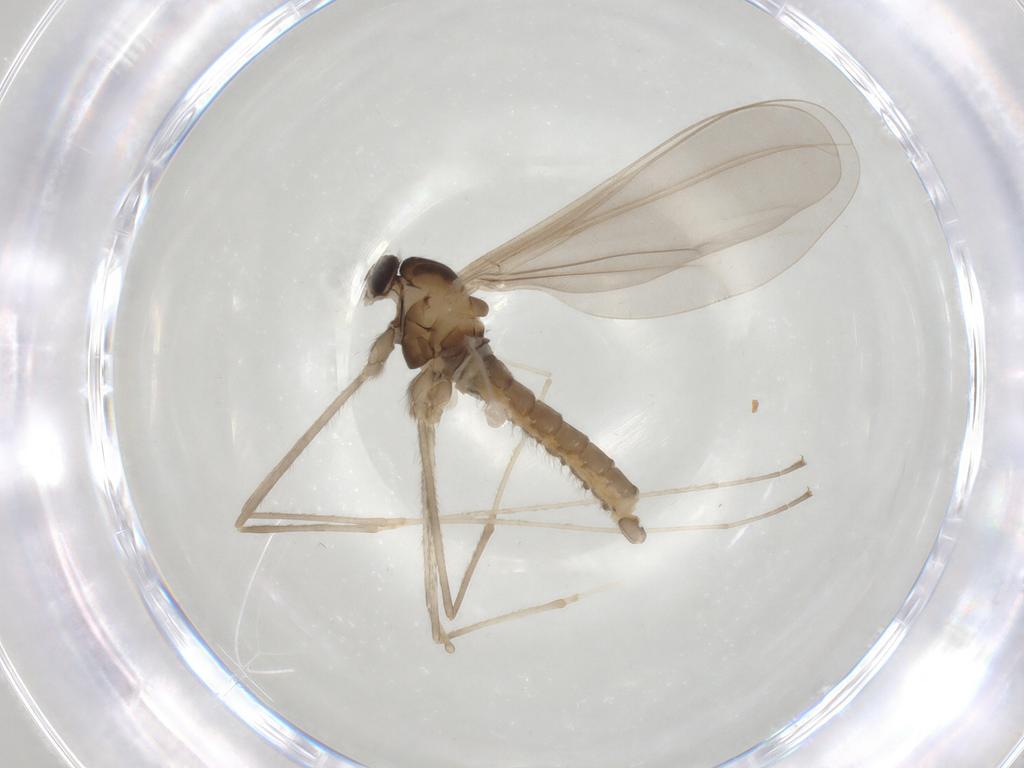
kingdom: Animalia
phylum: Arthropoda
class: Insecta
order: Diptera
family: Cecidomyiidae
